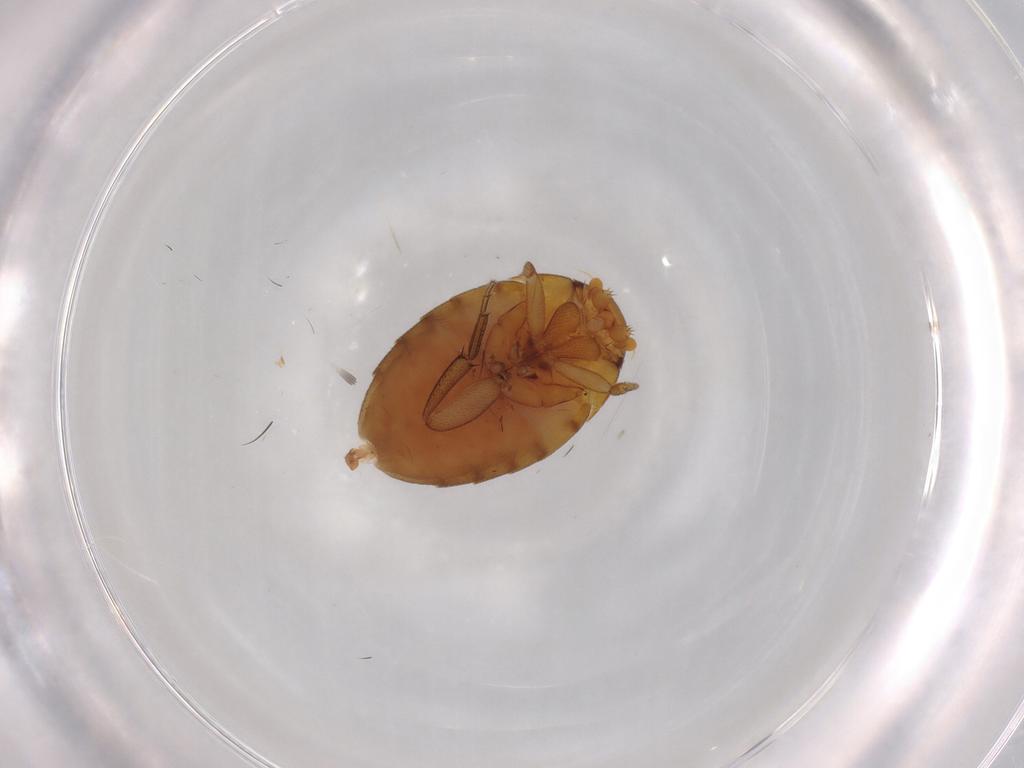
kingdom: Animalia
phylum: Arthropoda
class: Insecta
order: Diptera
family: Phoridae
